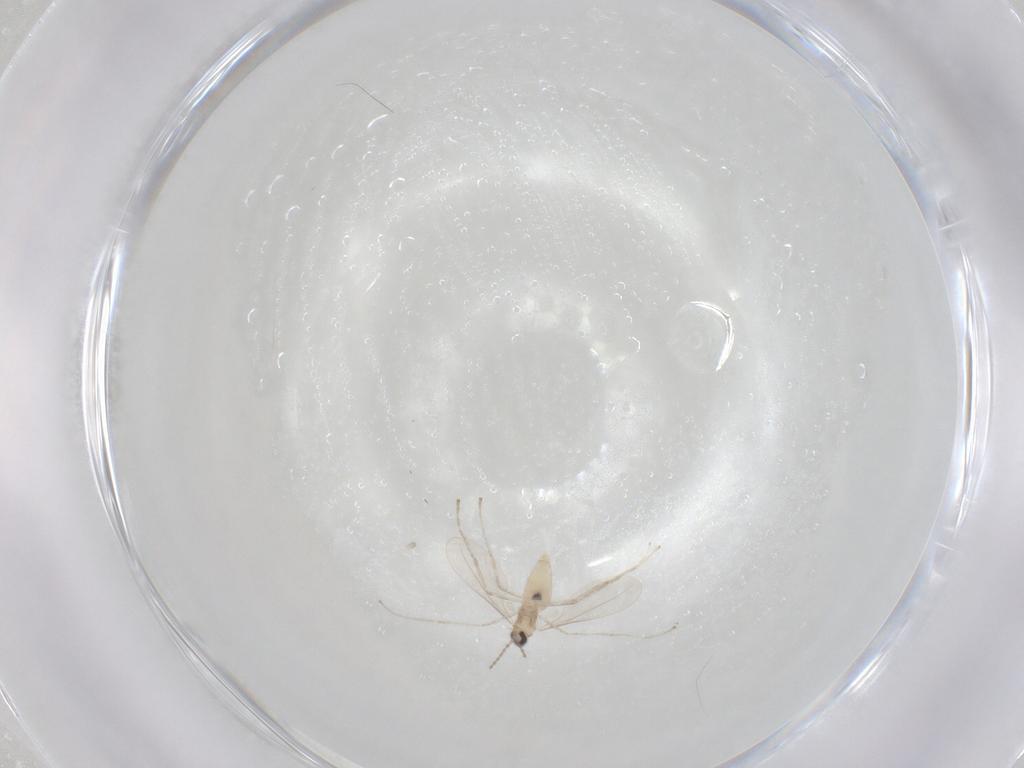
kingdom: Animalia
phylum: Arthropoda
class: Insecta
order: Diptera
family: Cecidomyiidae
